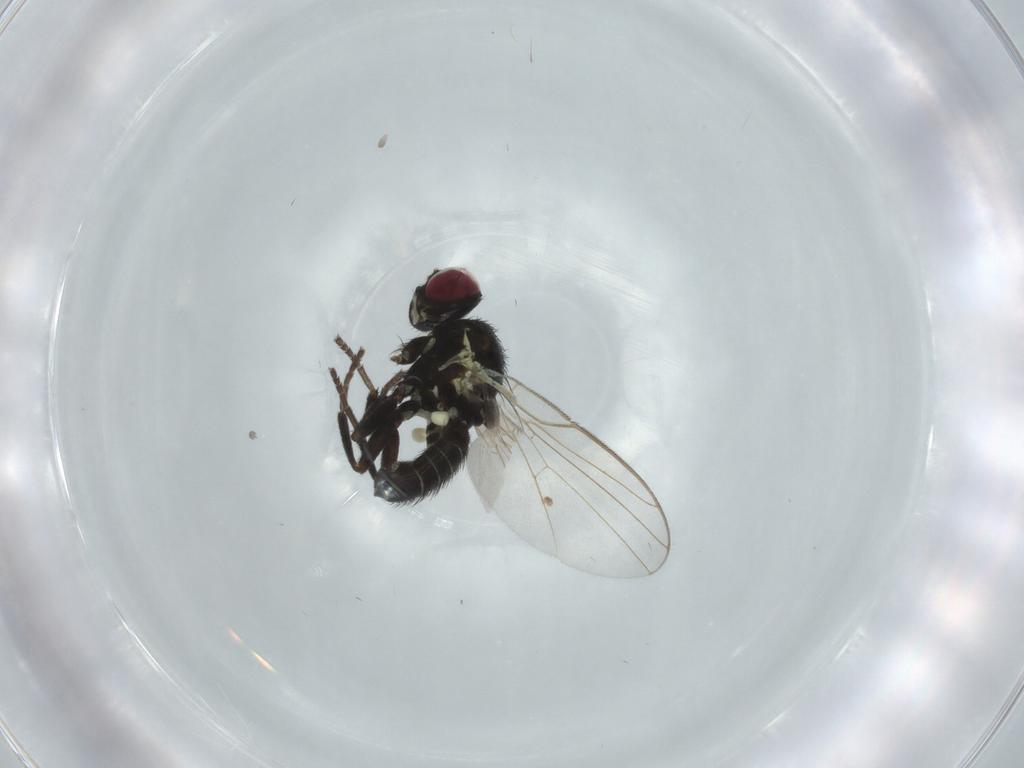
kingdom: Animalia
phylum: Arthropoda
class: Insecta
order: Diptera
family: Agromyzidae
